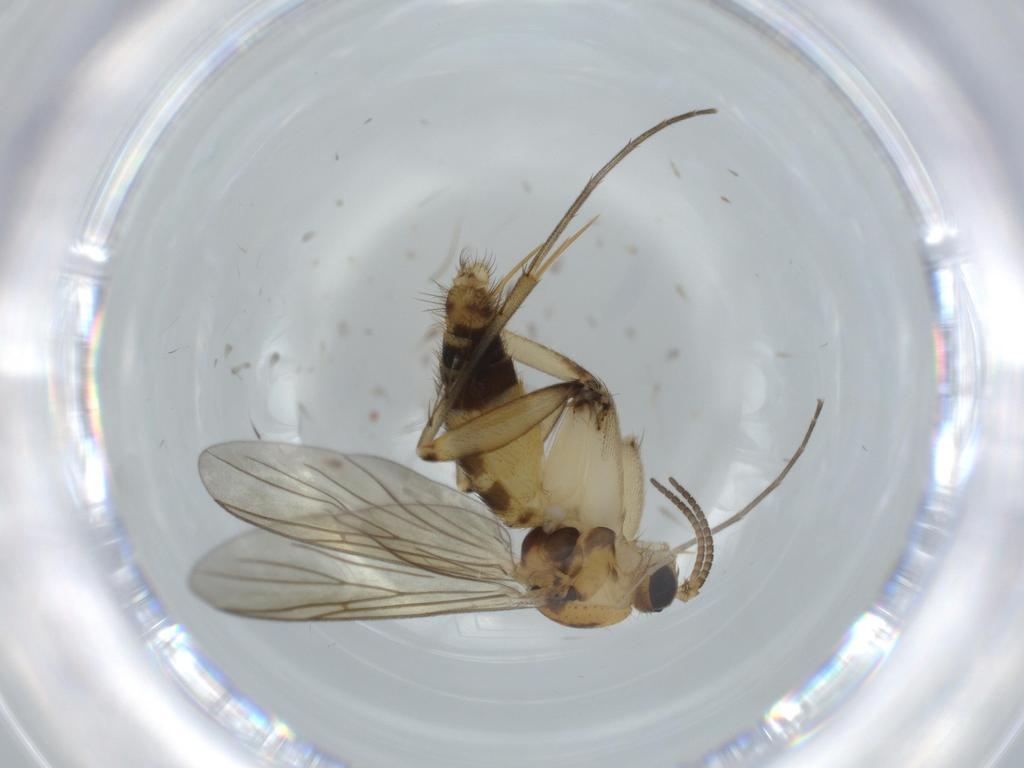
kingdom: Animalia
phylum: Arthropoda
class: Insecta
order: Diptera
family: Mycetophilidae
